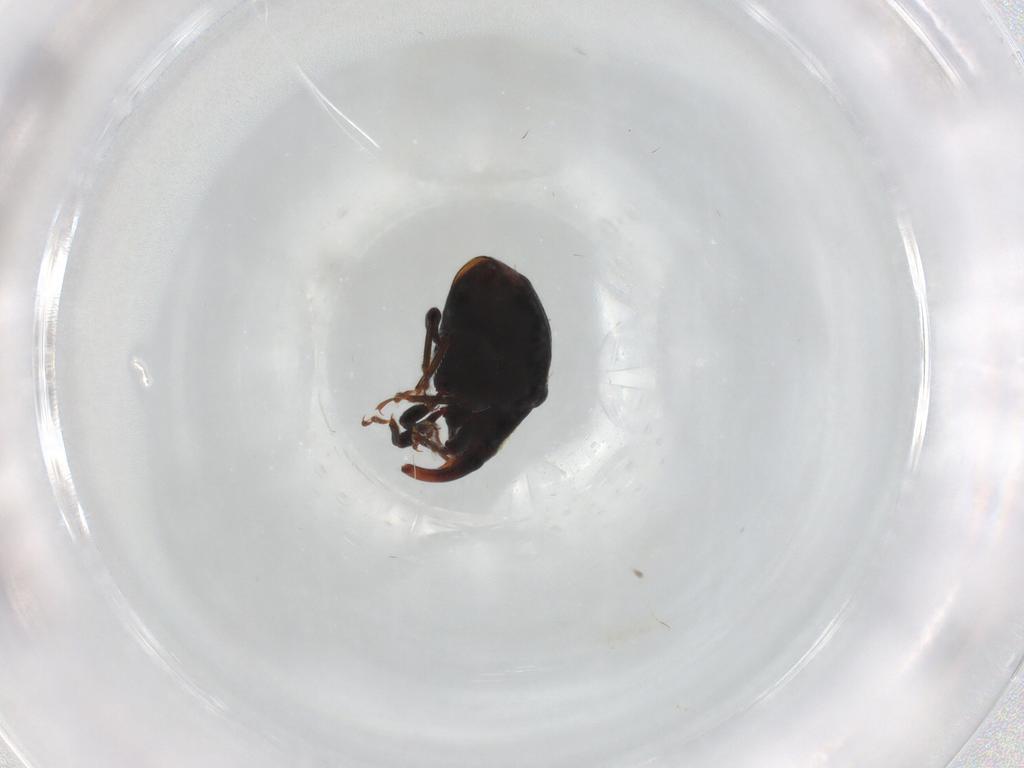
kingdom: Animalia
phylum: Arthropoda
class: Insecta
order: Coleoptera
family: Curculionidae
